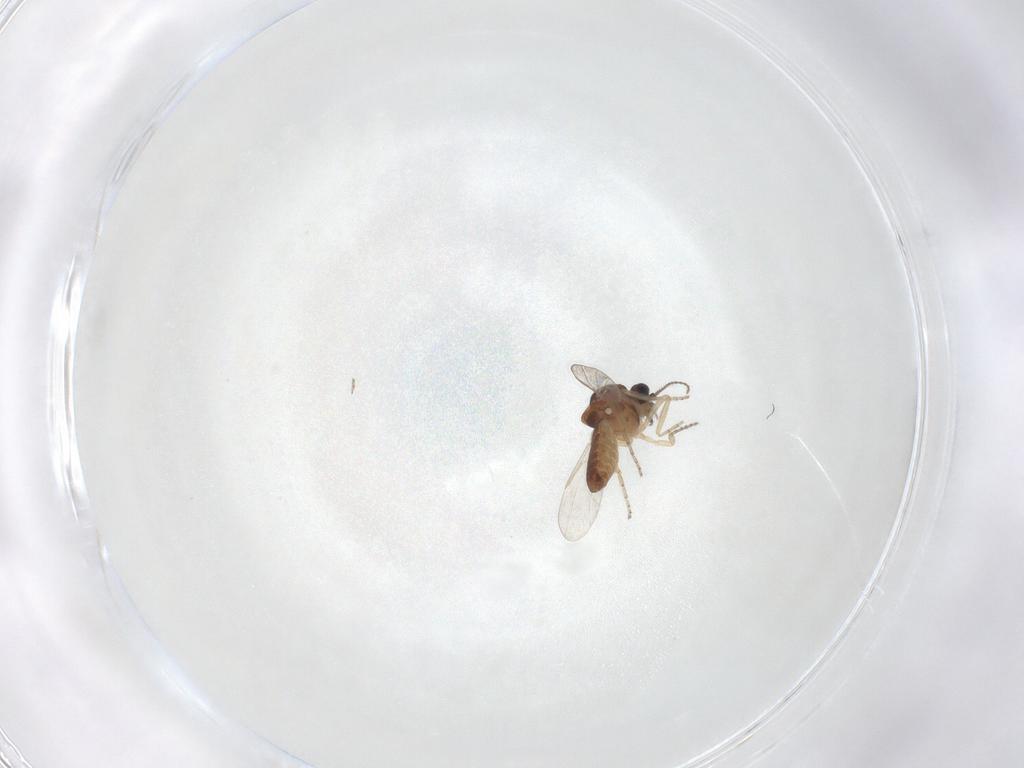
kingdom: Animalia
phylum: Arthropoda
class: Insecta
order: Diptera
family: Ceratopogonidae
